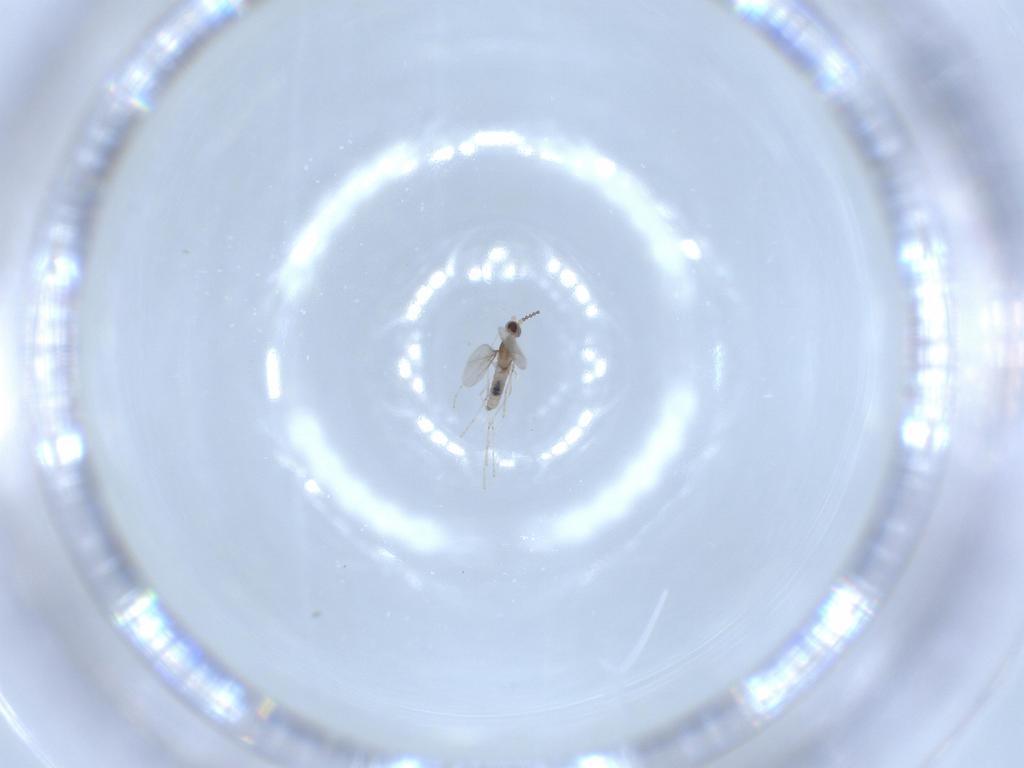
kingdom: Animalia
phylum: Arthropoda
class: Insecta
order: Diptera
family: Cecidomyiidae
